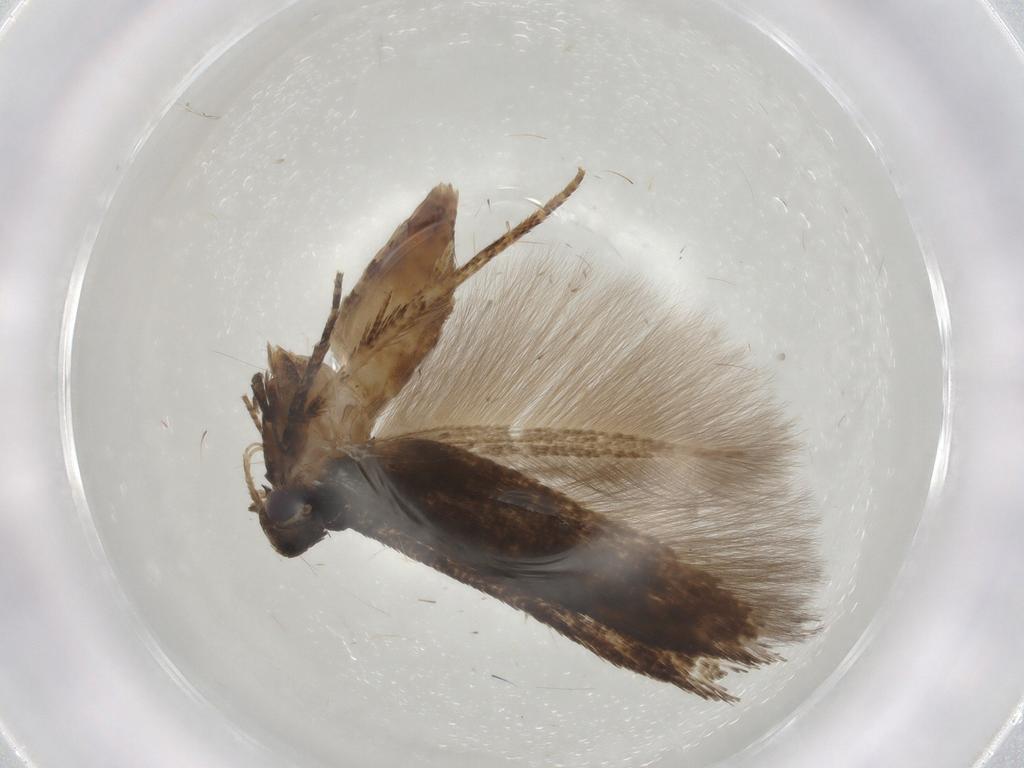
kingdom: Animalia
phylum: Arthropoda
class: Insecta
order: Lepidoptera
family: Cosmopterigidae
